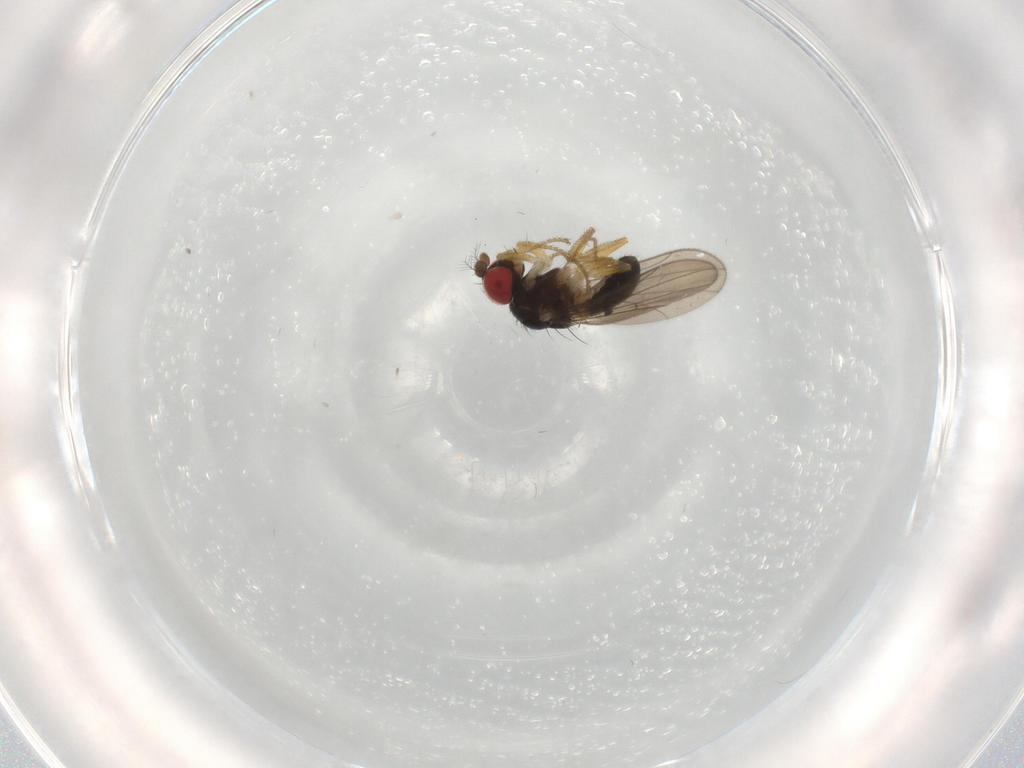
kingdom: Animalia
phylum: Arthropoda
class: Insecta
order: Diptera
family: Drosophilidae
